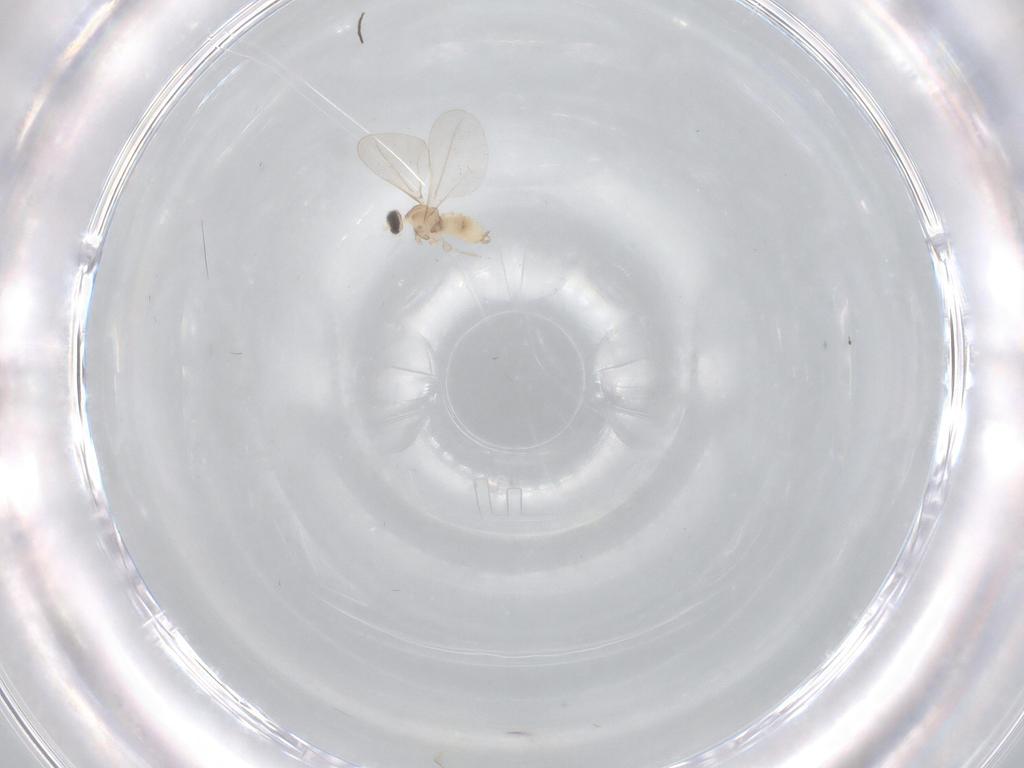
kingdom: Animalia
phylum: Arthropoda
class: Insecta
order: Diptera
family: Cecidomyiidae
